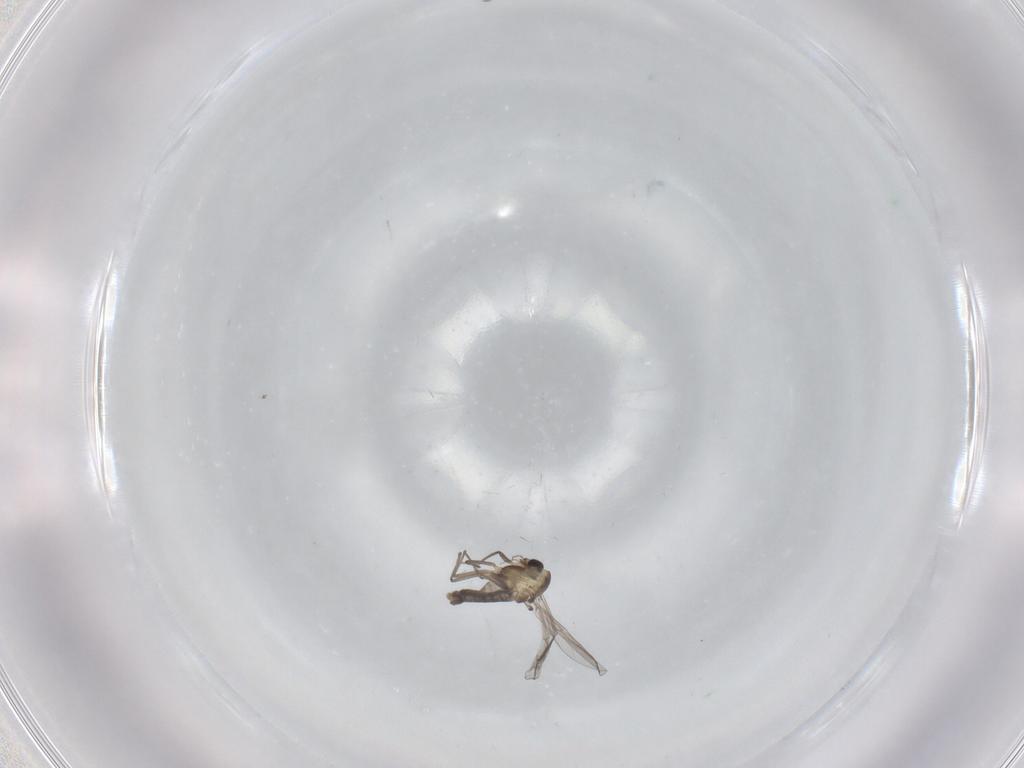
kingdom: Animalia
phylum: Arthropoda
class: Insecta
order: Diptera
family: Chironomidae
